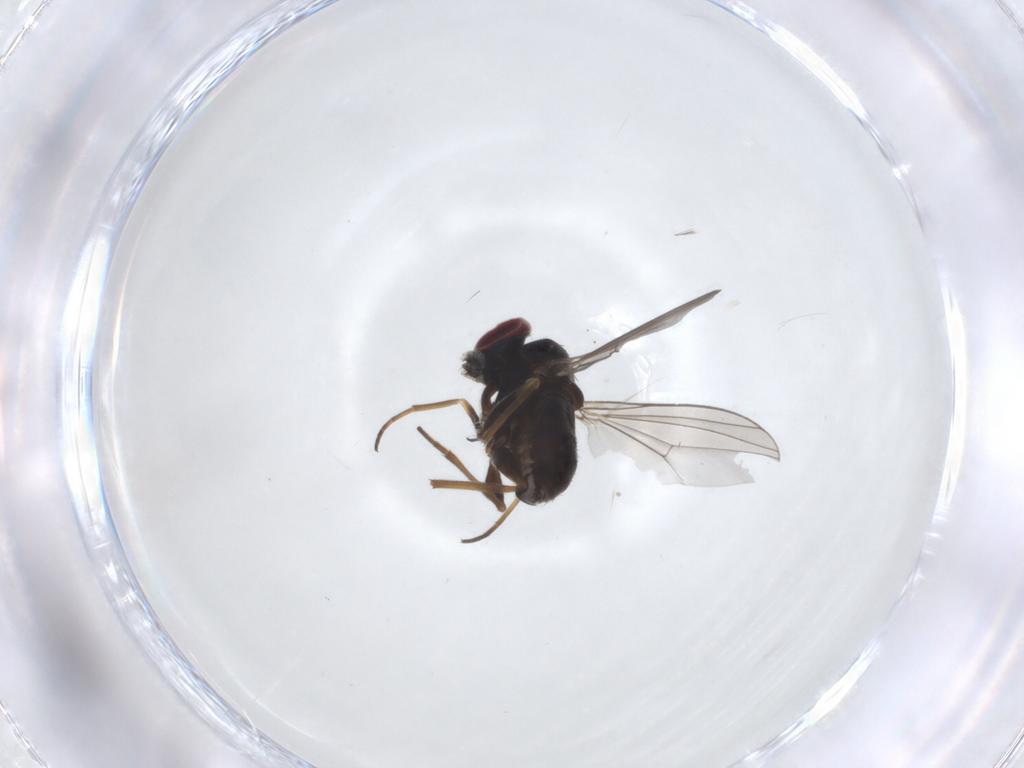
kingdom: Animalia
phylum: Arthropoda
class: Insecta
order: Diptera
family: Dolichopodidae
